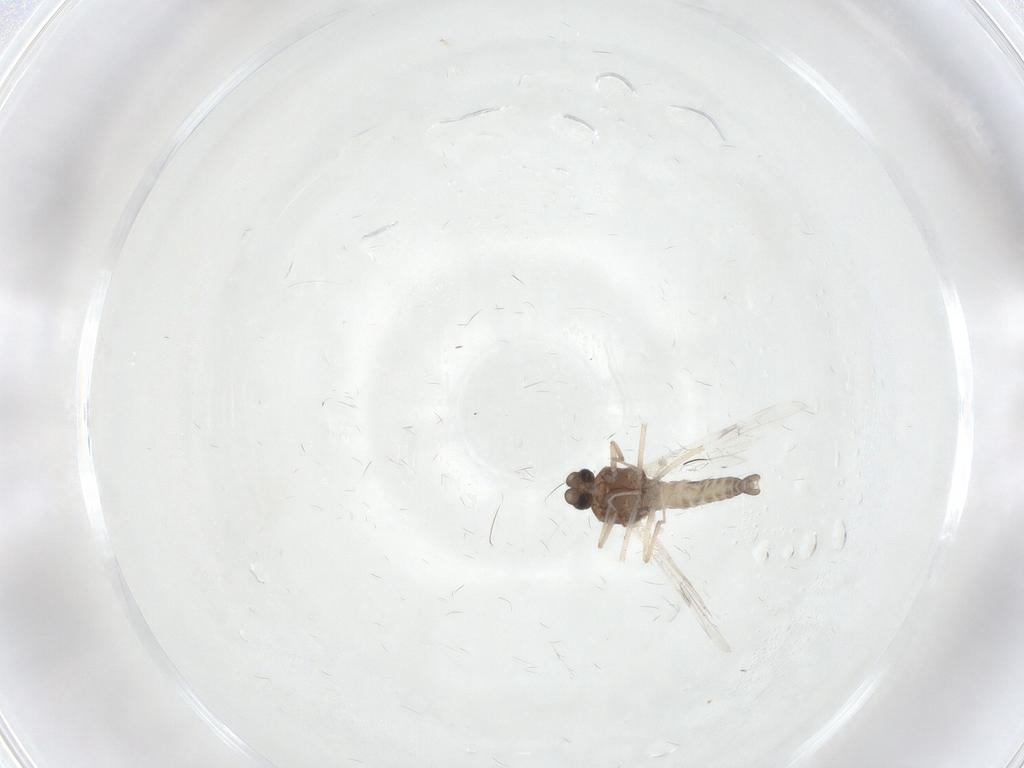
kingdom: Animalia
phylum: Arthropoda
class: Insecta
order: Diptera
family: Ceratopogonidae
